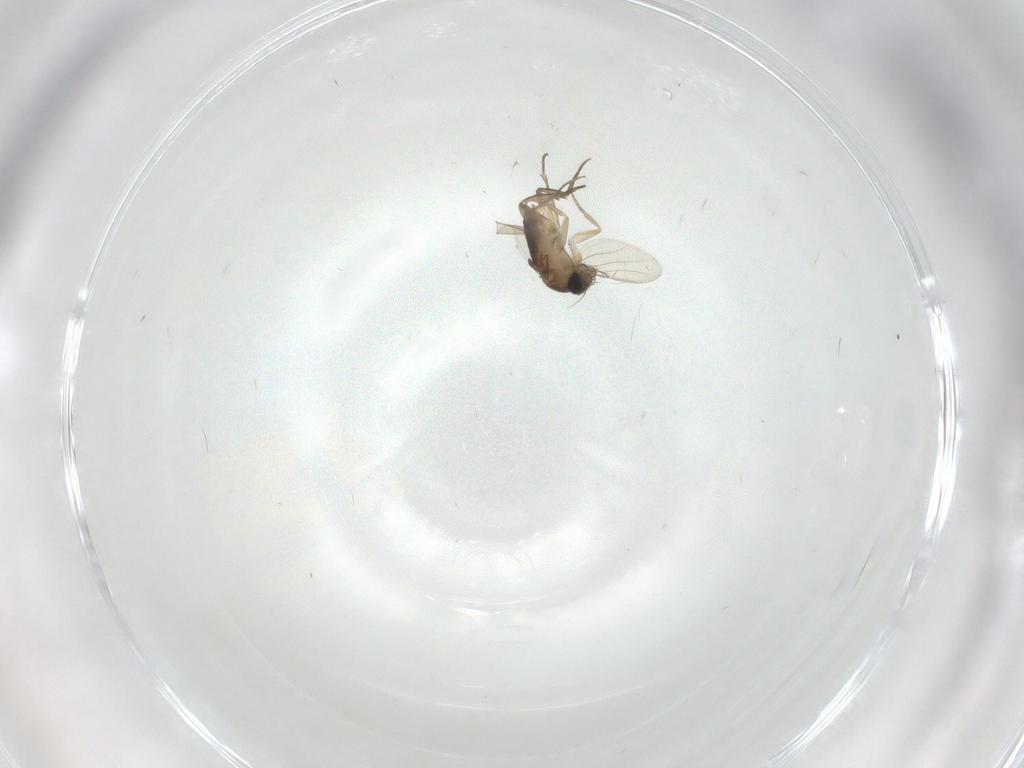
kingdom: Animalia
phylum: Arthropoda
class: Insecta
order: Diptera
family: Phoridae
